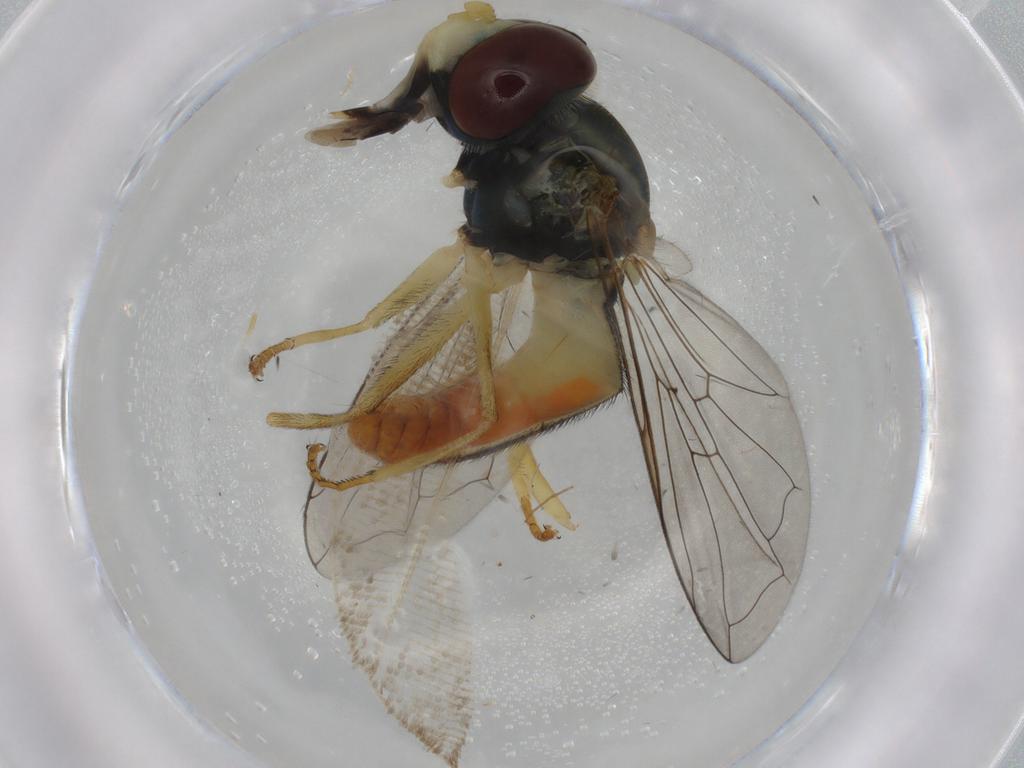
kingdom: Animalia
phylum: Arthropoda
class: Insecta
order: Diptera
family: Syrphidae
